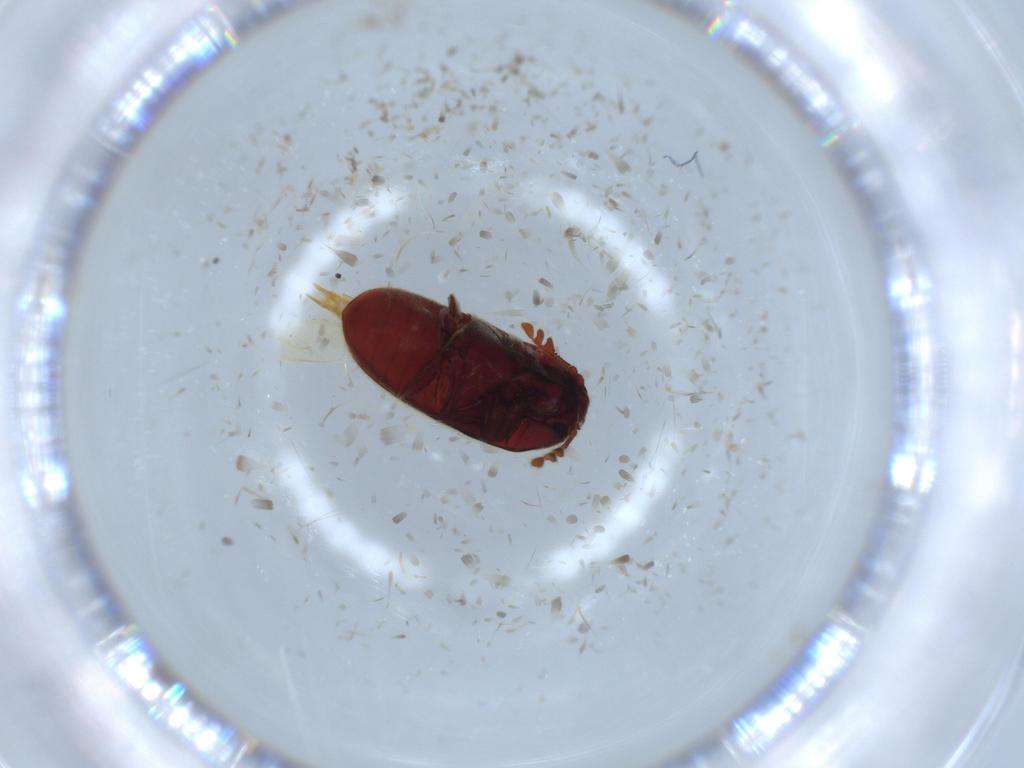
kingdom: Animalia
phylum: Arthropoda
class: Insecta
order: Coleoptera
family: Throscidae
